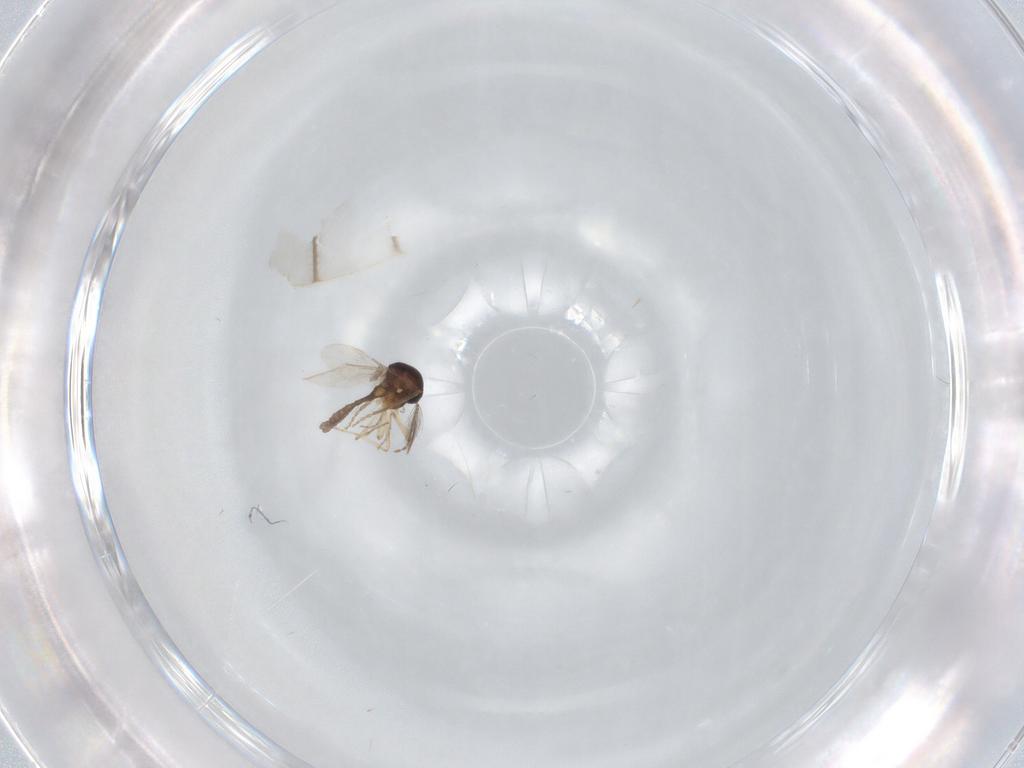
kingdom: Animalia
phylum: Arthropoda
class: Insecta
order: Diptera
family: Ceratopogonidae
